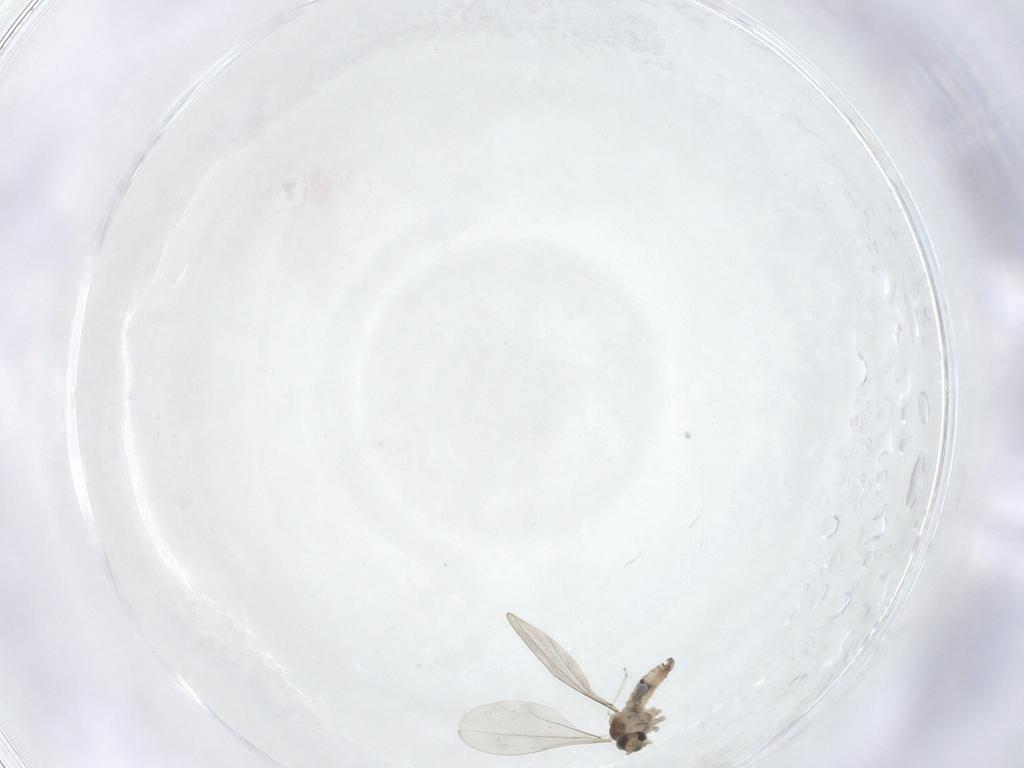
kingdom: Animalia
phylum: Arthropoda
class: Insecta
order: Diptera
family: Cecidomyiidae
